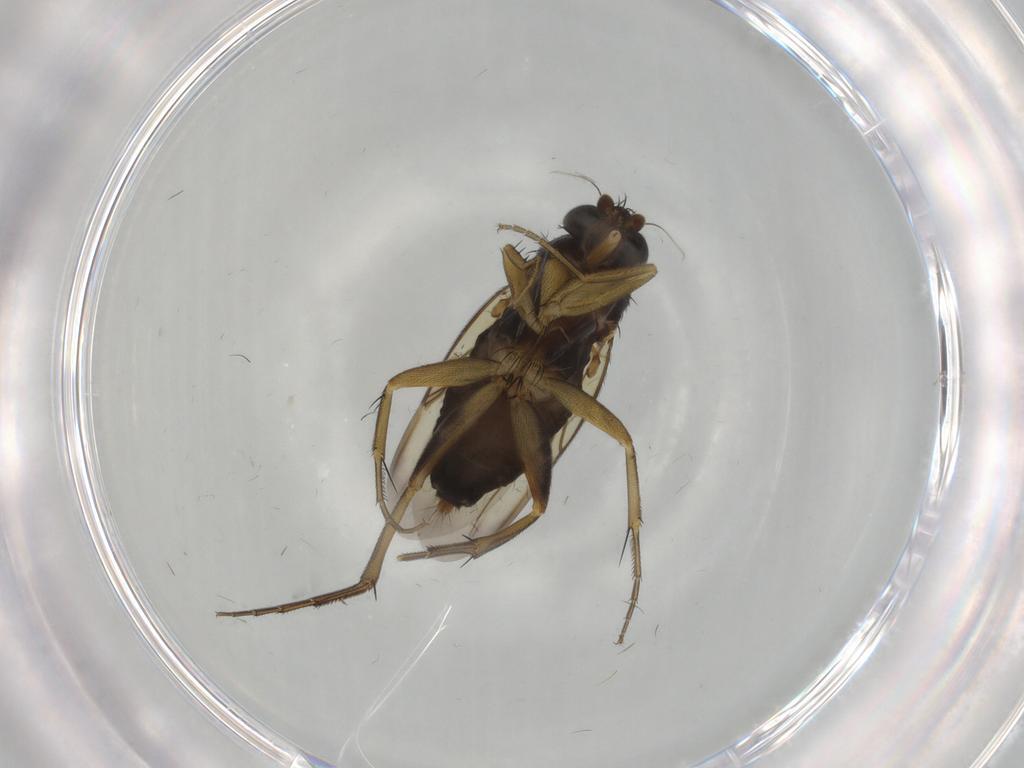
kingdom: Animalia
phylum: Arthropoda
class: Insecta
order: Diptera
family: Phoridae
